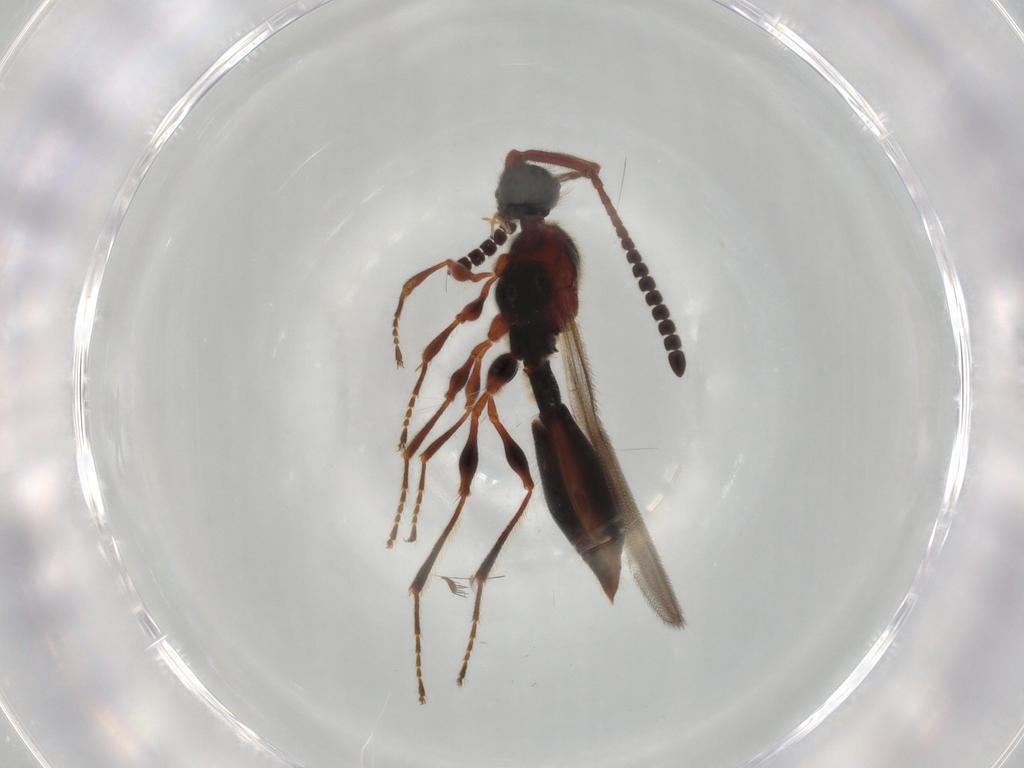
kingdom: Animalia
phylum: Arthropoda
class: Insecta
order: Hymenoptera
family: Diapriidae
